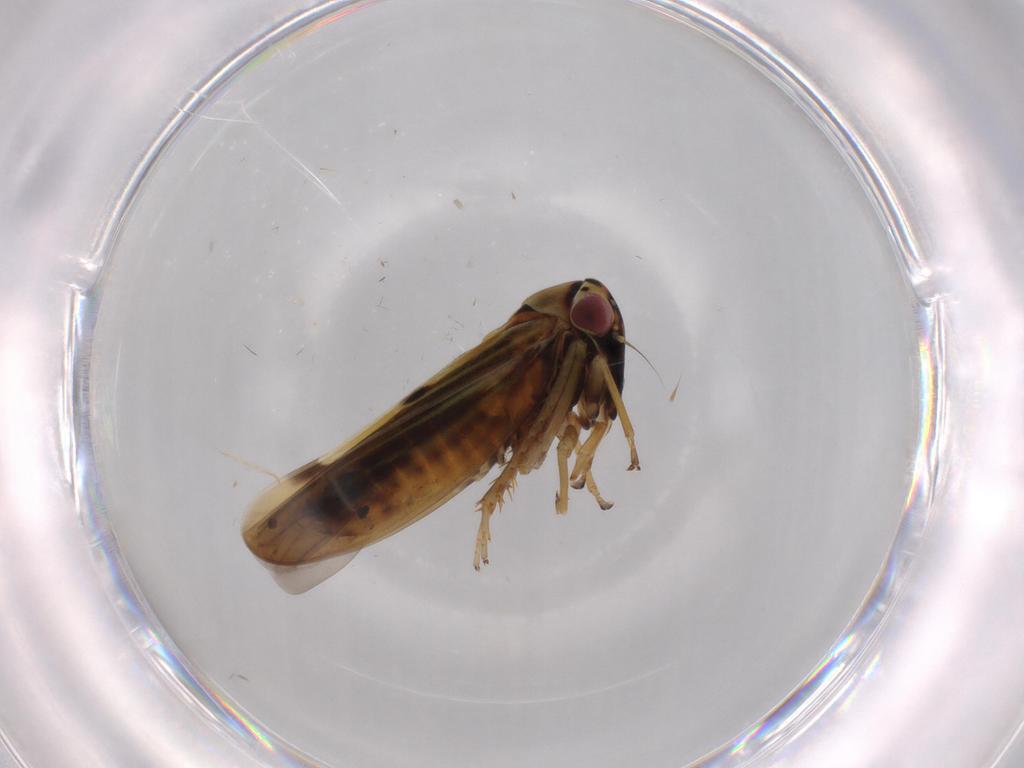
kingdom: Animalia
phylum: Arthropoda
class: Insecta
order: Hemiptera
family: Cicadellidae
